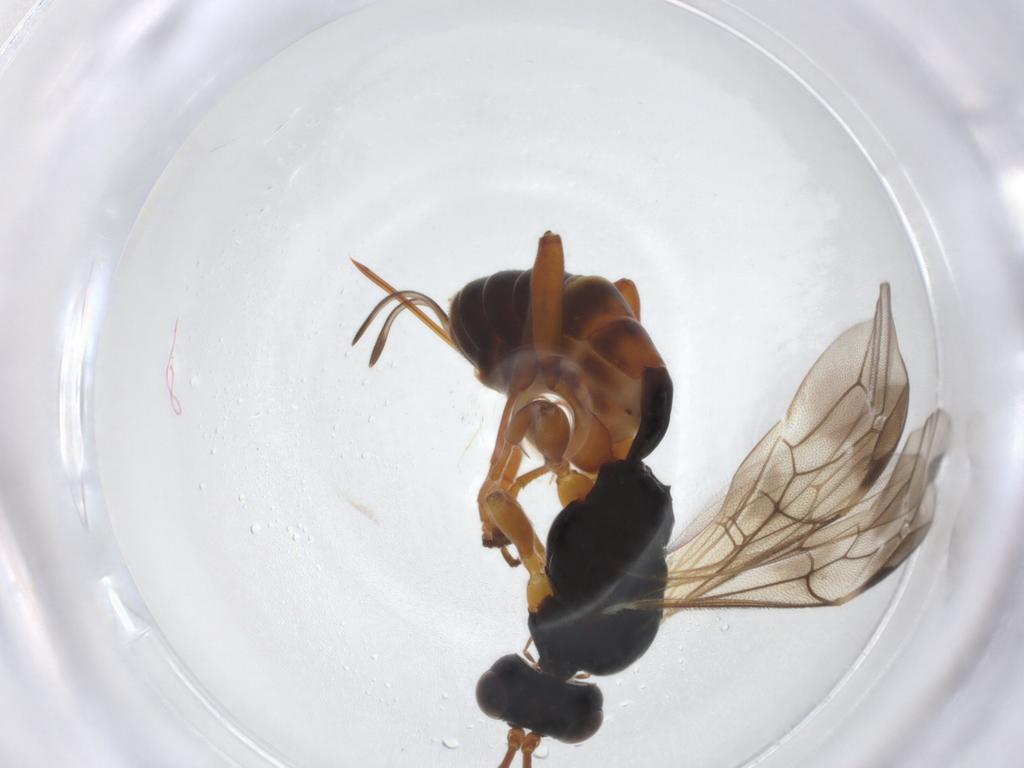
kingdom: Animalia
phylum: Arthropoda
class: Insecta
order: Hymenoptera
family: Ichneumonidae
